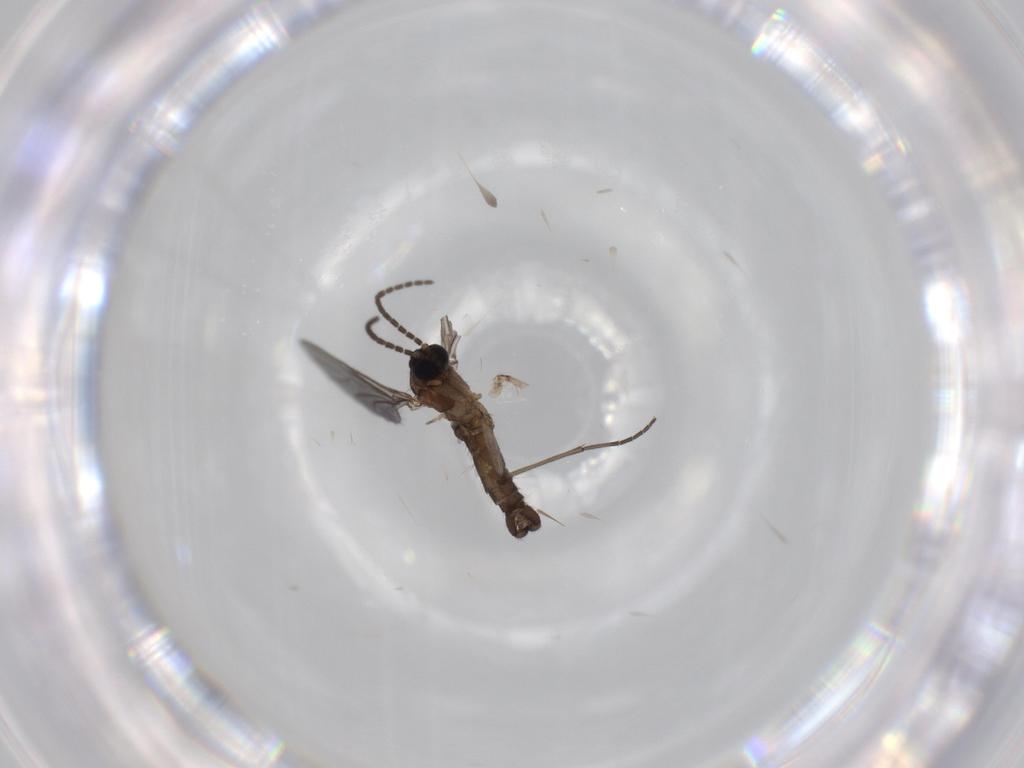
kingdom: Animalia
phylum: Arthropoda
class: Insecta
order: Diptera
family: Sciaridae
